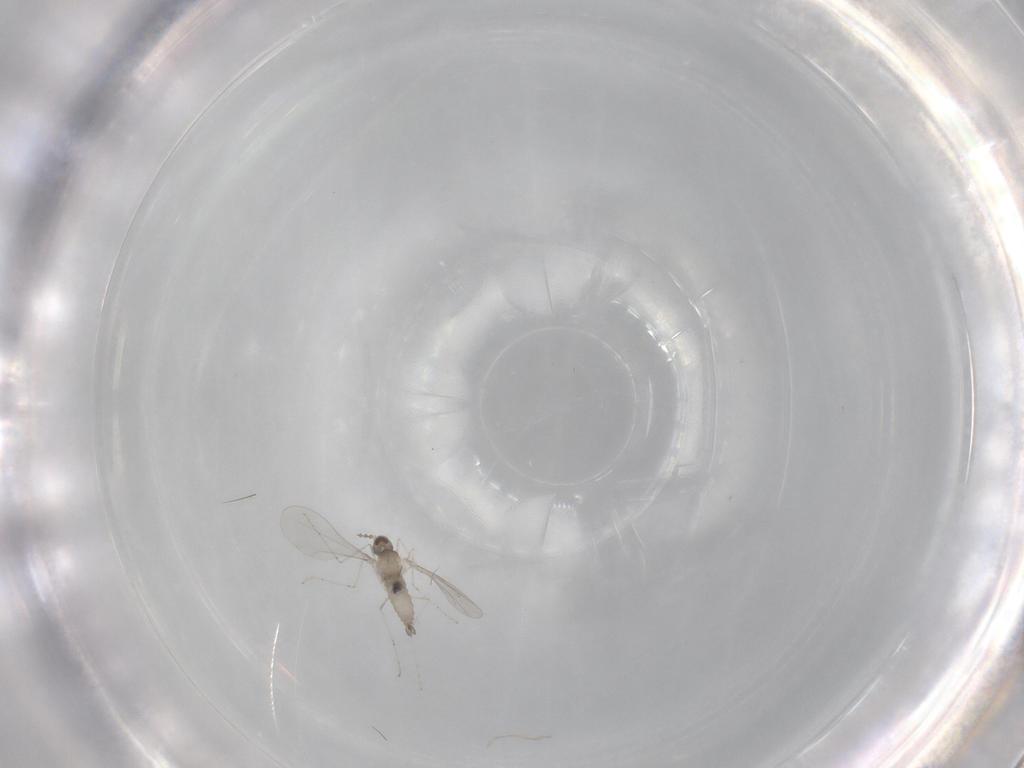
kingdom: Animalia
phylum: Arthropoda
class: Insecta
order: Diptera
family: Cecidomyiidae
